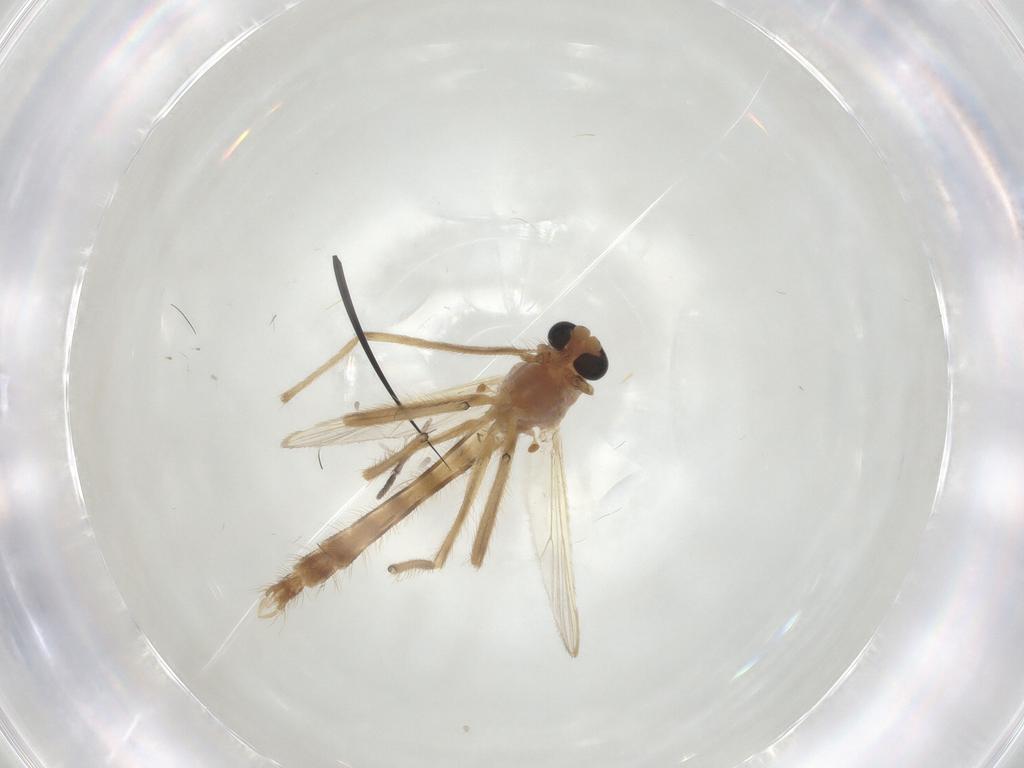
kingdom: Animalia
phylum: Arthropoda
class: Insecta
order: Diptera
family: Chironomidae
